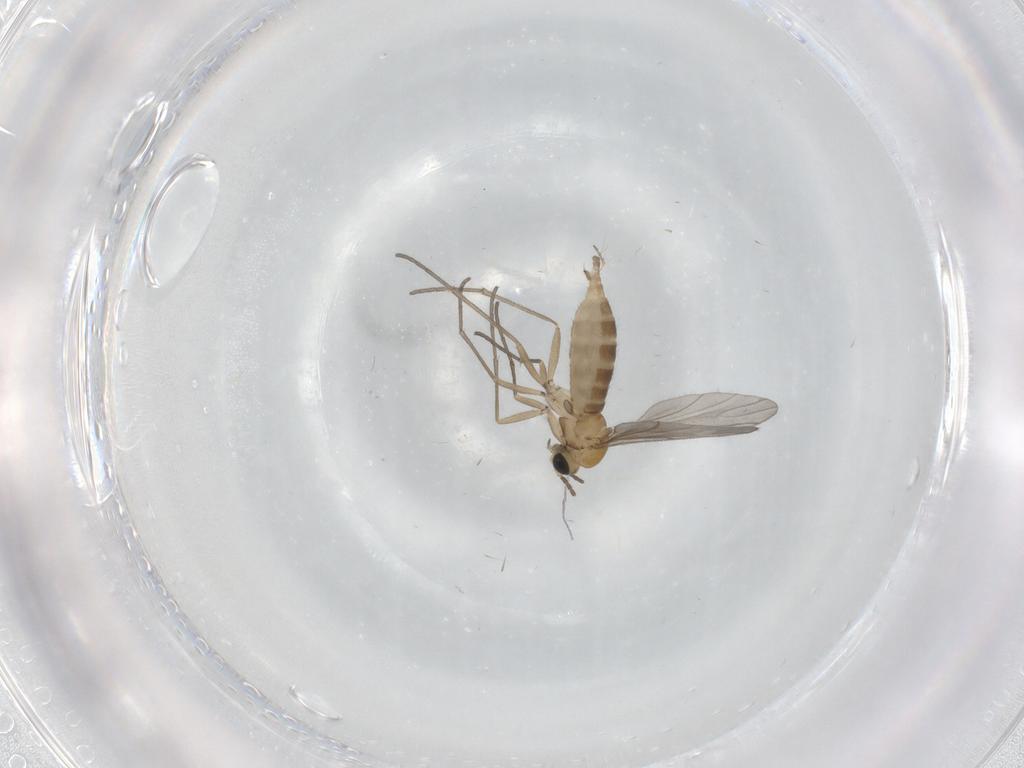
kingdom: Animalia
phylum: Arthropoda
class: Insecta
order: Diptera
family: Sciaridae
